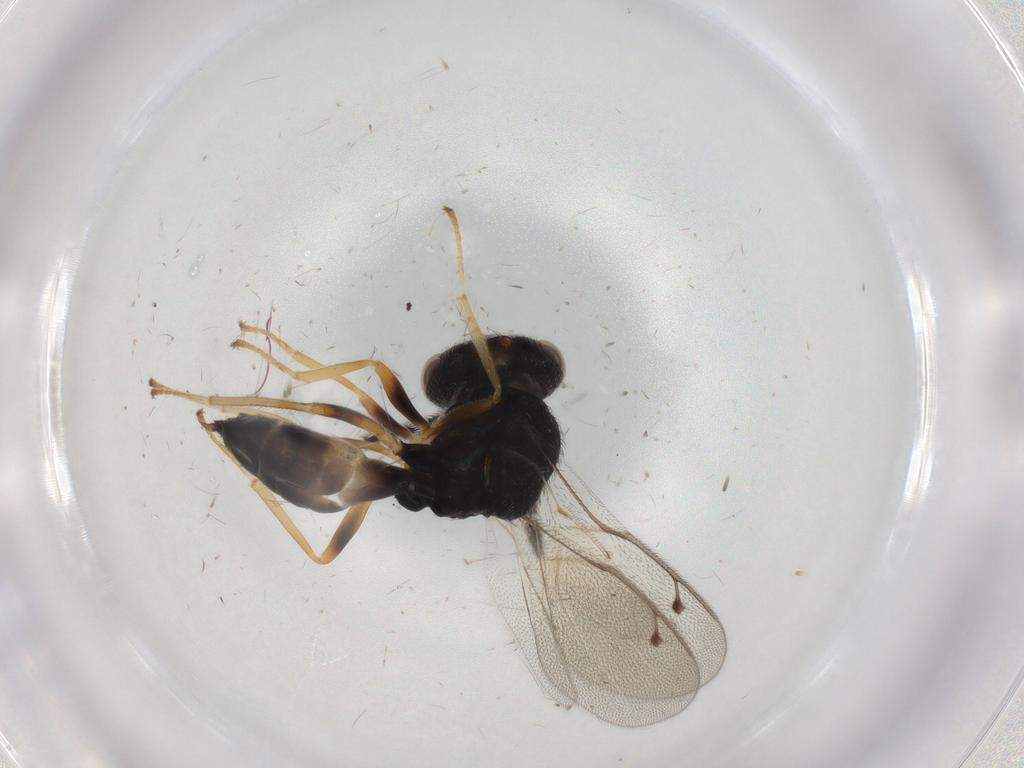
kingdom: Animalia
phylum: Arthropoda
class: Insecta
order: Hymenoptera
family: Pteromalidae
